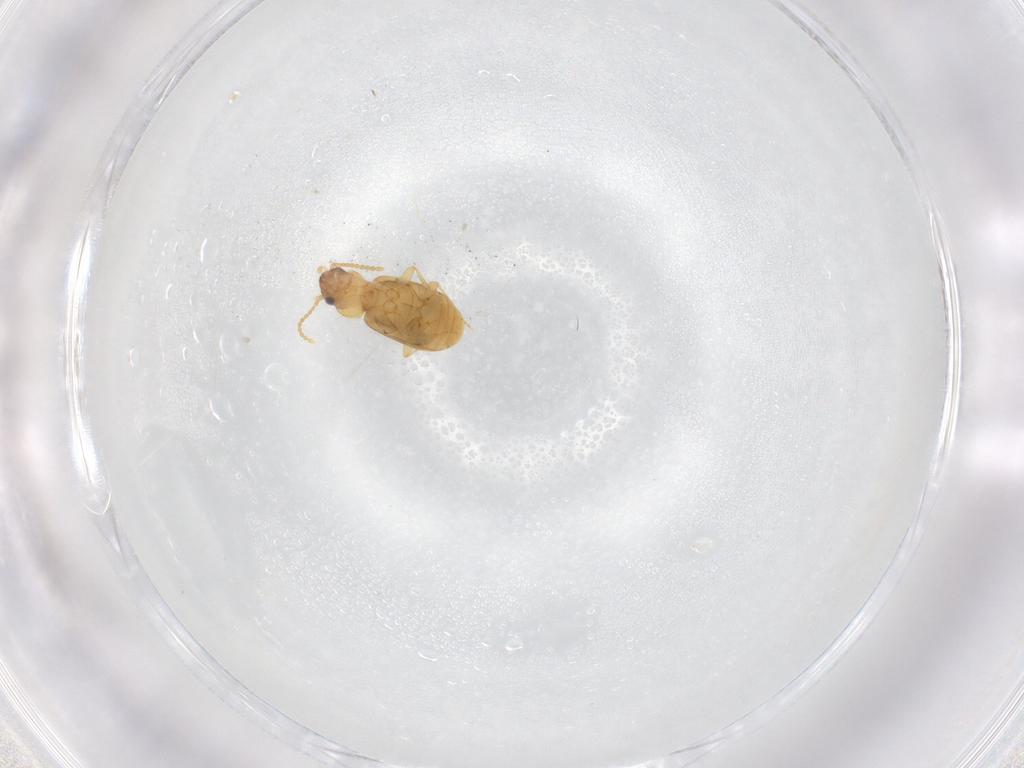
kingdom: Animalia
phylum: Arthropoda
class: Insecta
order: Coleoptera
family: Carabidae
